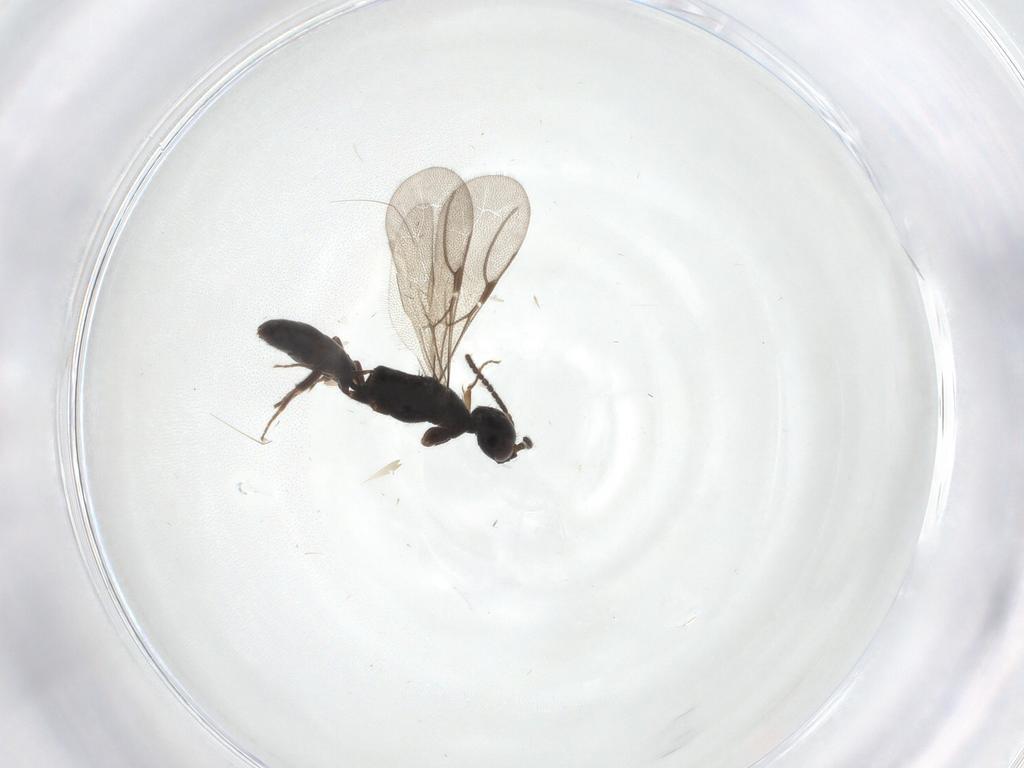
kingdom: Animalia
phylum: Arthropoda
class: Insecta
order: Hymenoptera
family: Bethylidae
